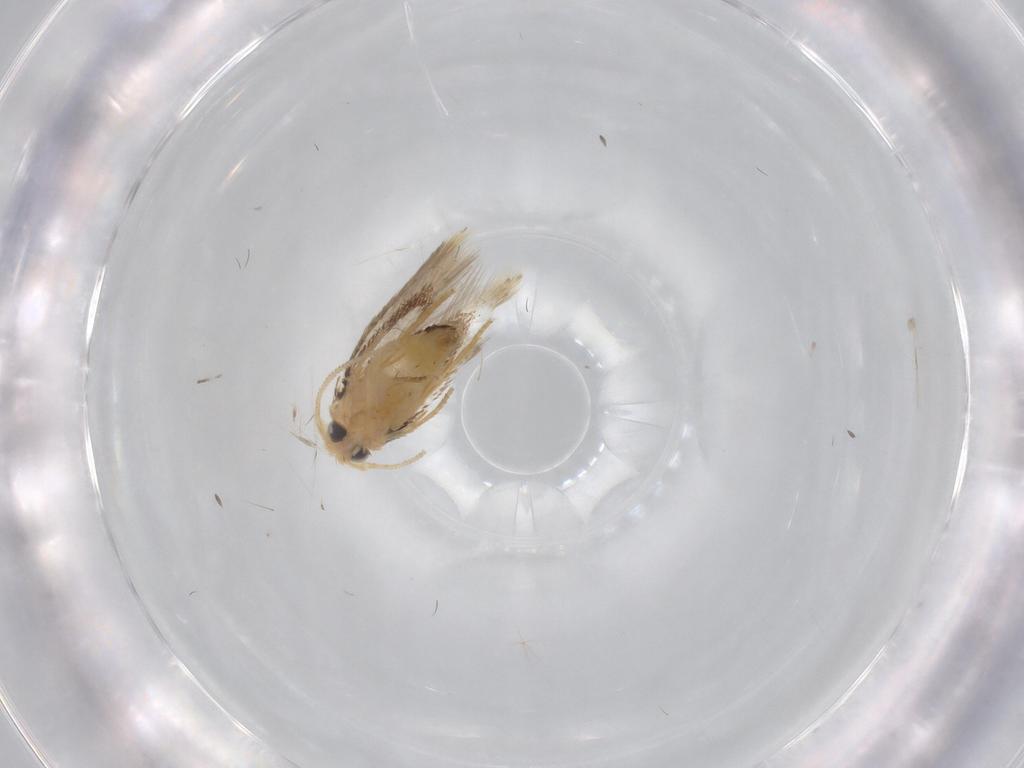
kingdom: Animalia
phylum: Arthropoda
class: Insecta
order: Lepidoptera
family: Nepticulidae
